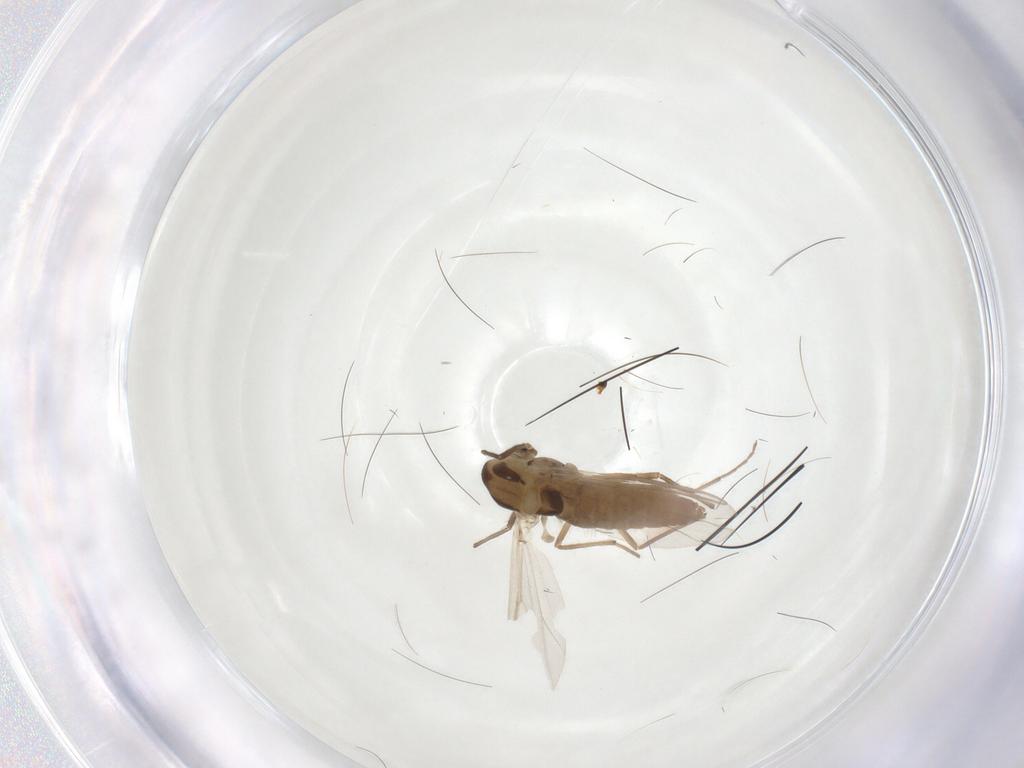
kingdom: Animalia
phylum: Arthropoda
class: Insecta
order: Diptera
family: Chironomidae
